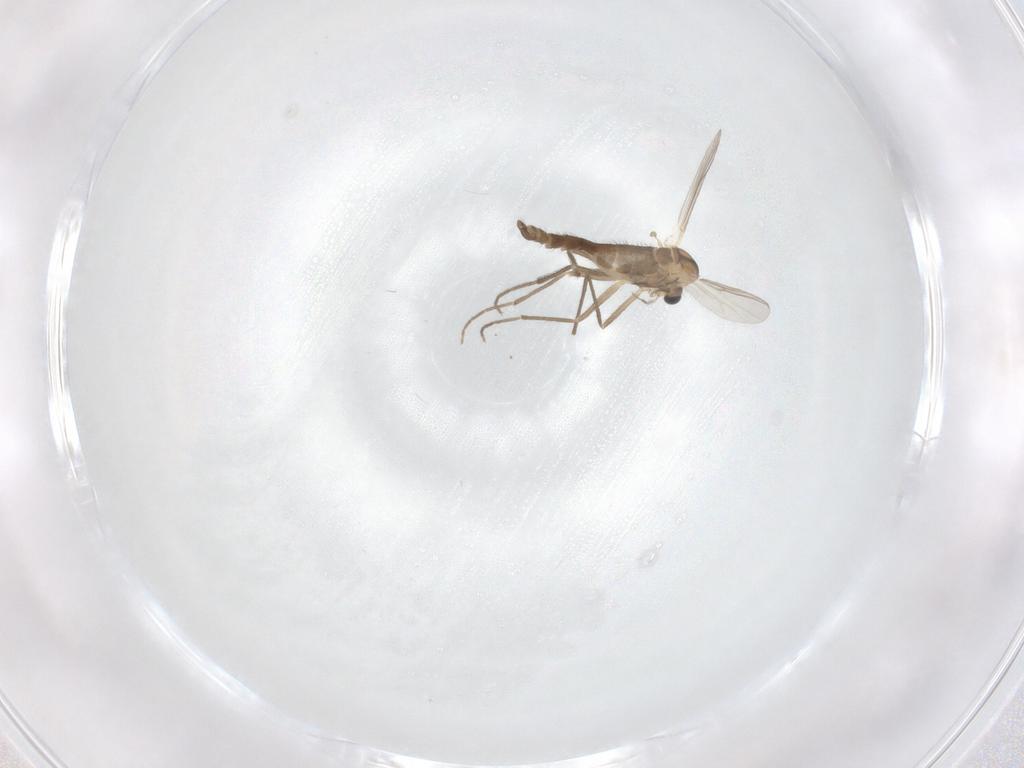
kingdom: Animalia
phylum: Arthropoda
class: Insecta
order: Diptera
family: Chironomidae
